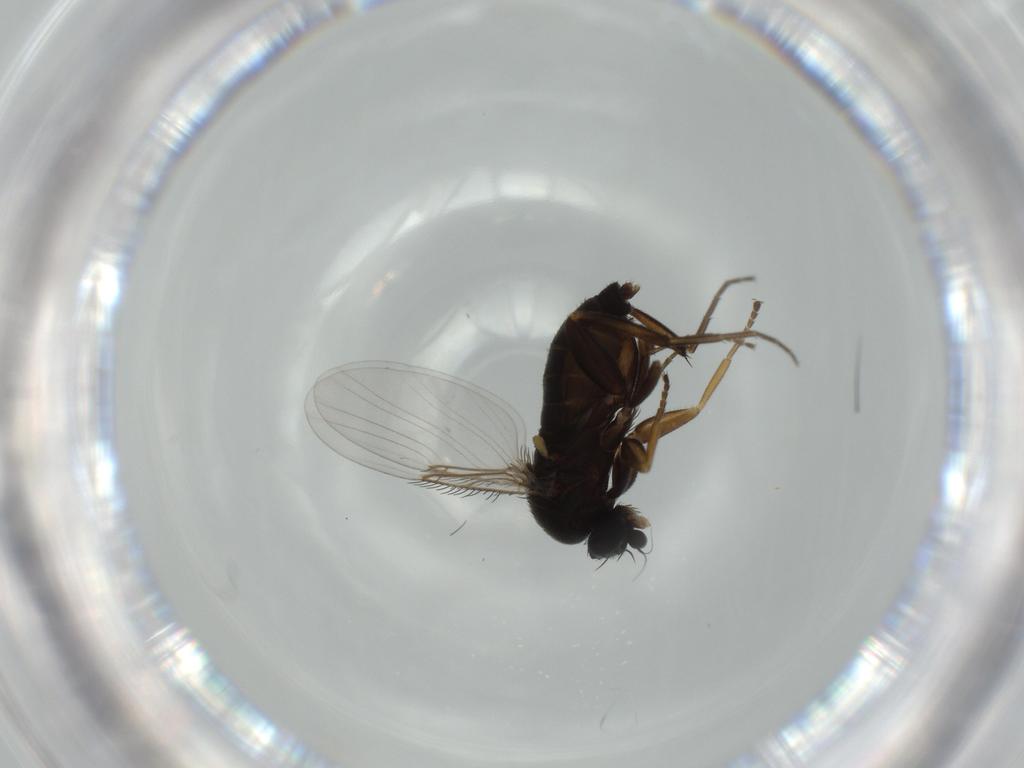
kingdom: Animalia
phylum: Arthropoda
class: Insecta
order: Diptera
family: Phoridae
